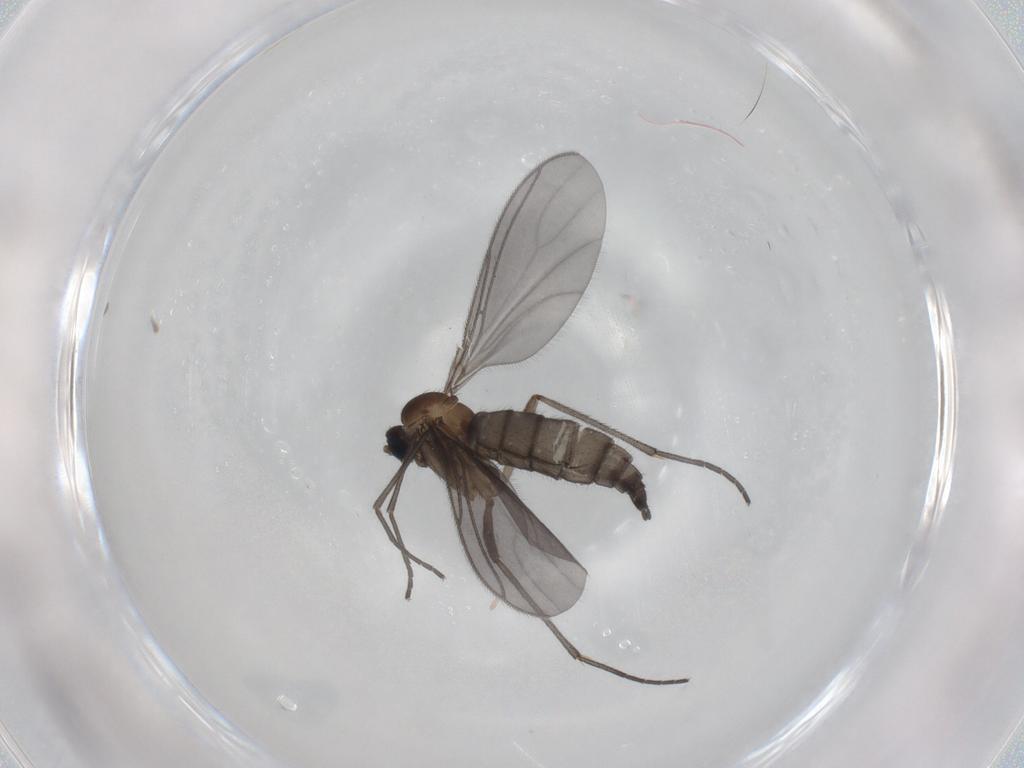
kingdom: Animalia
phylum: Arthropoda
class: Insecta
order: Diptera
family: Sciaridae
